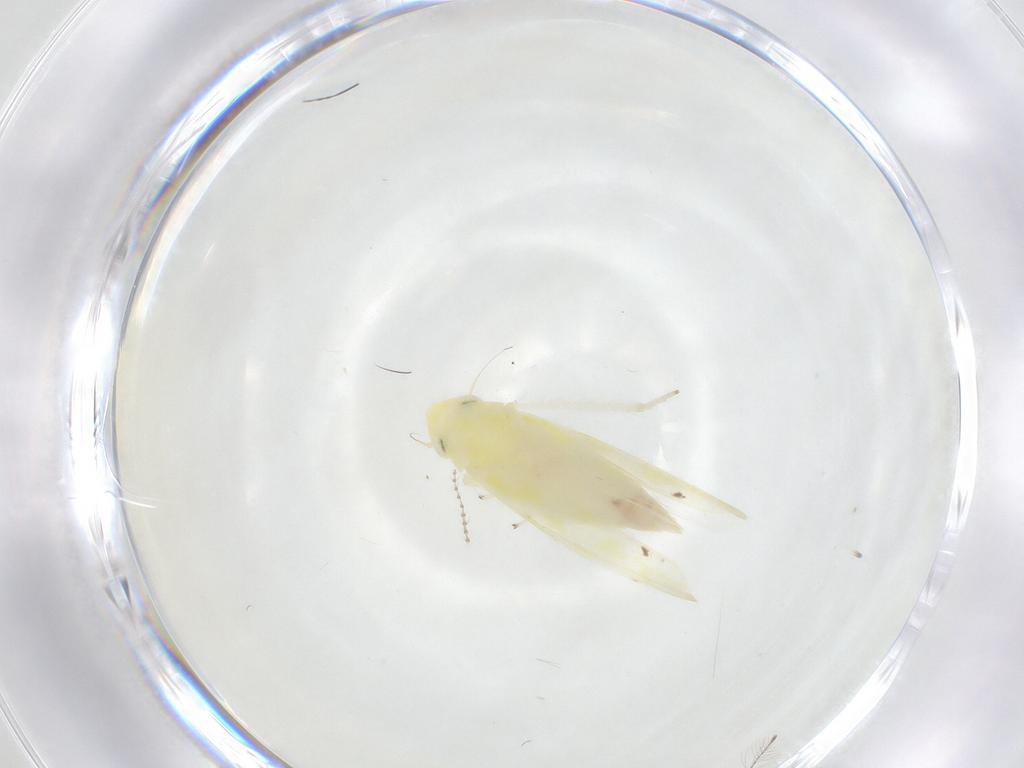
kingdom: Animalia
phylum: Arthropoda
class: Insecta
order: Hemiptera
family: Cicadellidae
